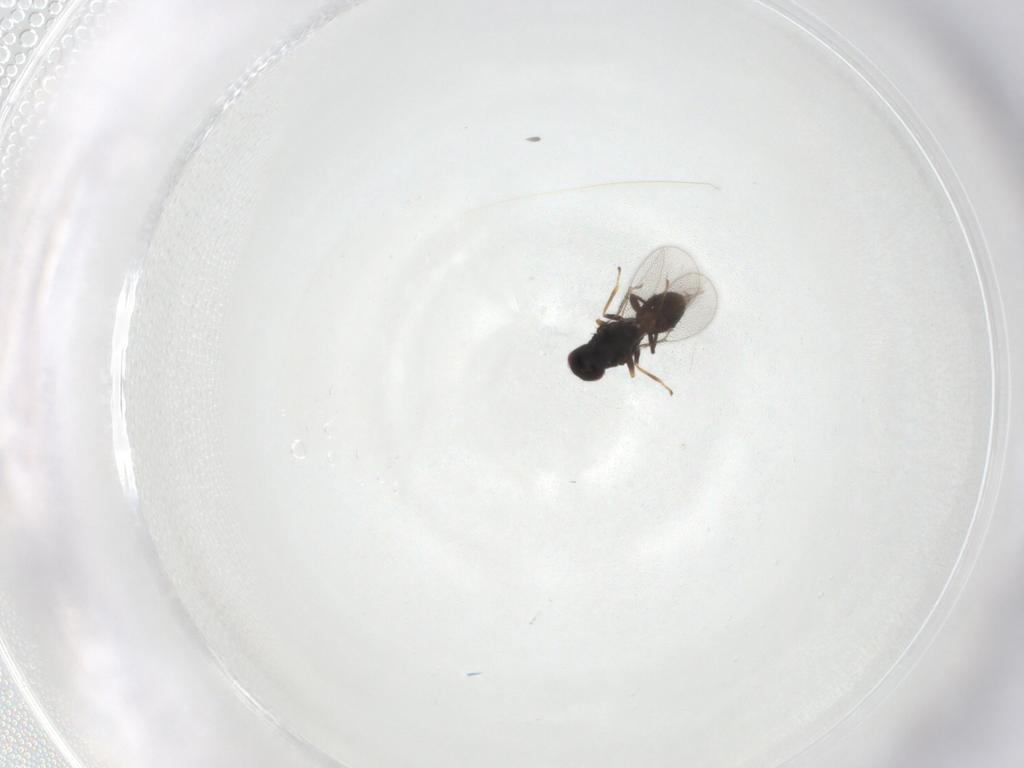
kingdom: Animalia
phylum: Arthropoda
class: Insecta
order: Hymenoptera
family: Eulophidae
